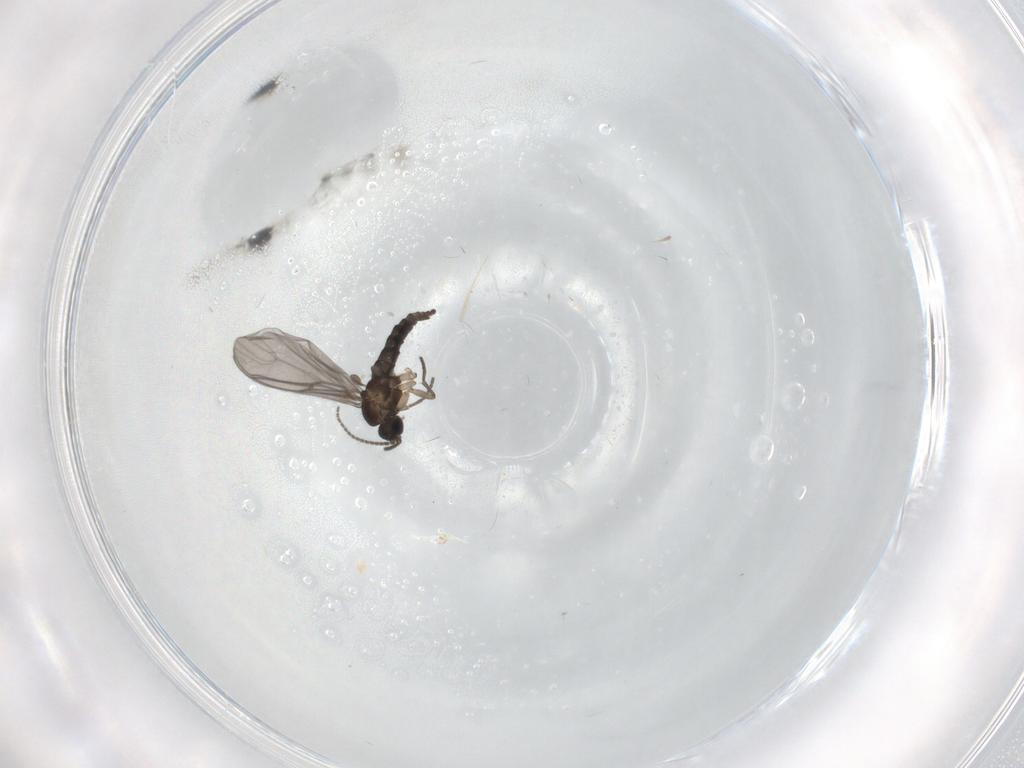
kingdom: Animalia
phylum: Arthropoda
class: Insecta
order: Diptera
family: Sciaridae
